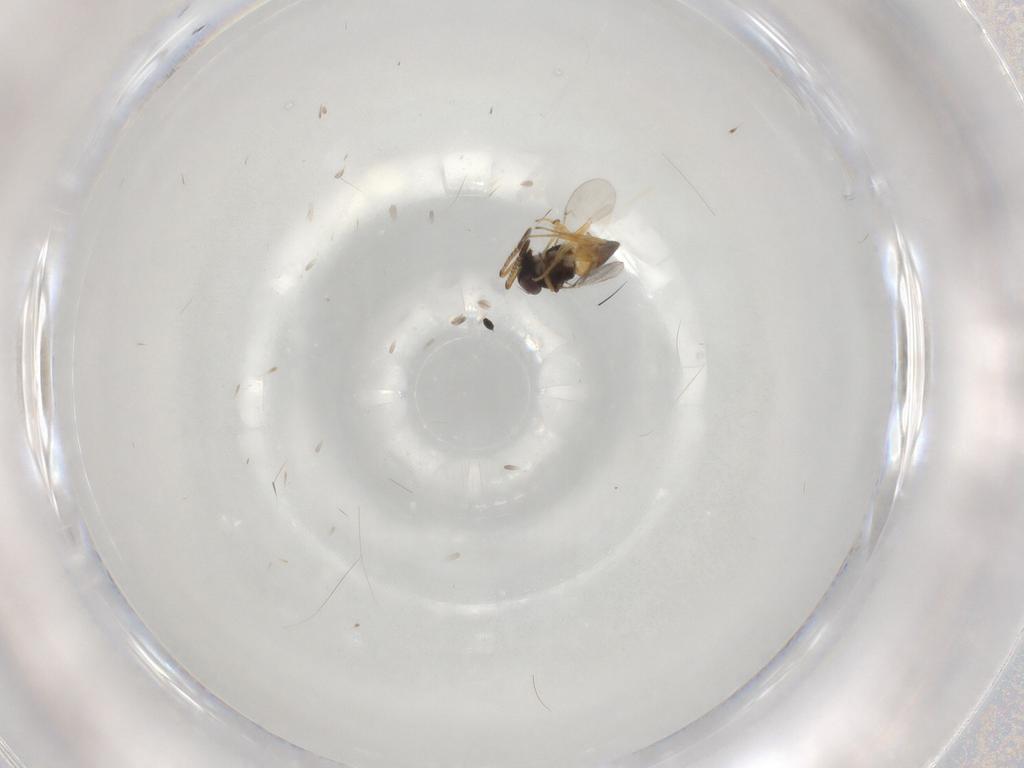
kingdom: Animalia
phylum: Arthropoda
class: Insecta
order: Hymenoptera
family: Encyrtidae
